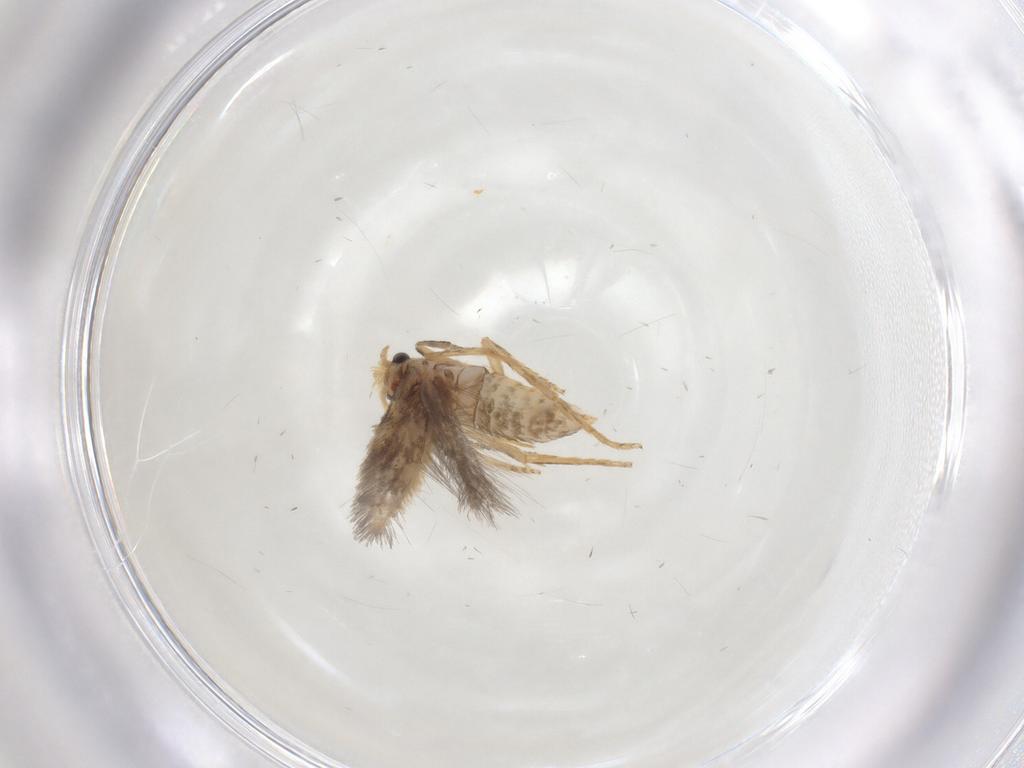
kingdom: Animalia
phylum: Arthropoda
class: Insecta
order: Lepidoptera
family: Nepticulidae
